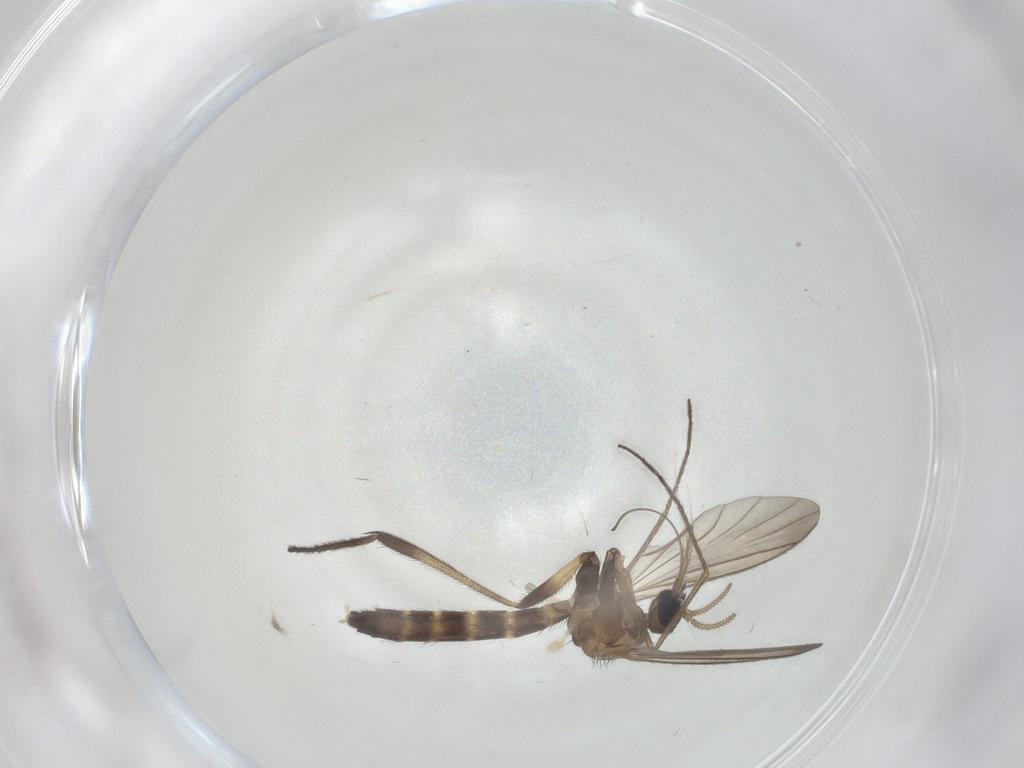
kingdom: Animalia
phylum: Arthropoda
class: Insecta
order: Diptera
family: Keroplatidae
